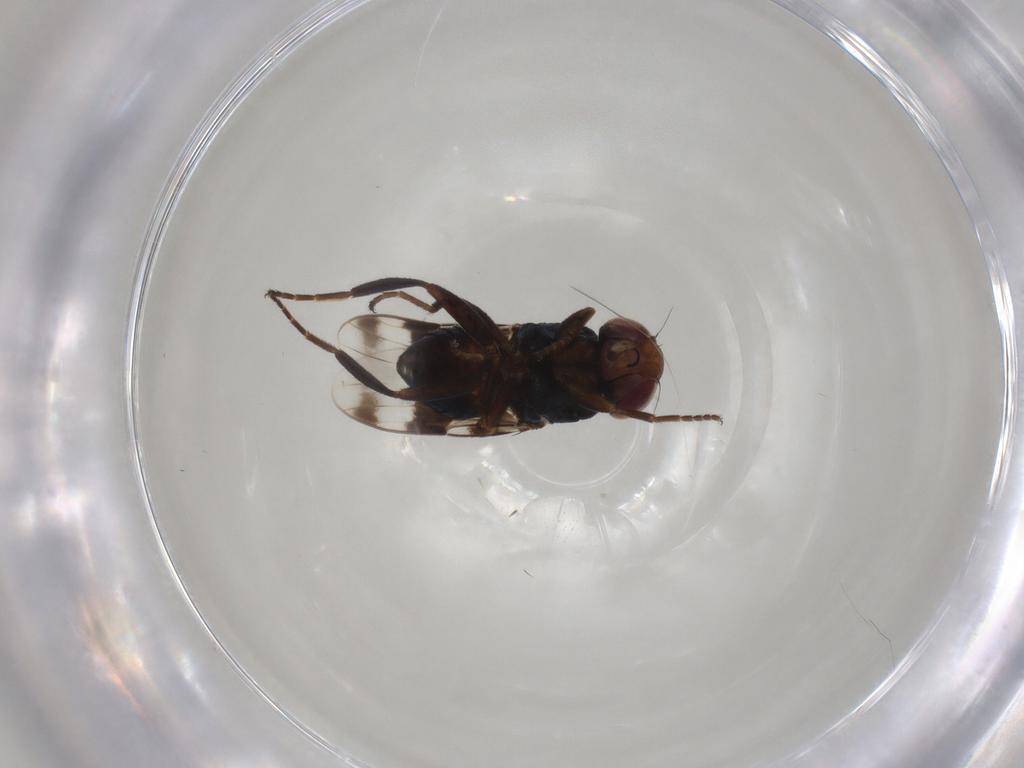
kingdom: Animalia
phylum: Arthropoda
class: Insecta
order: Diptera
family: Chloropidae
